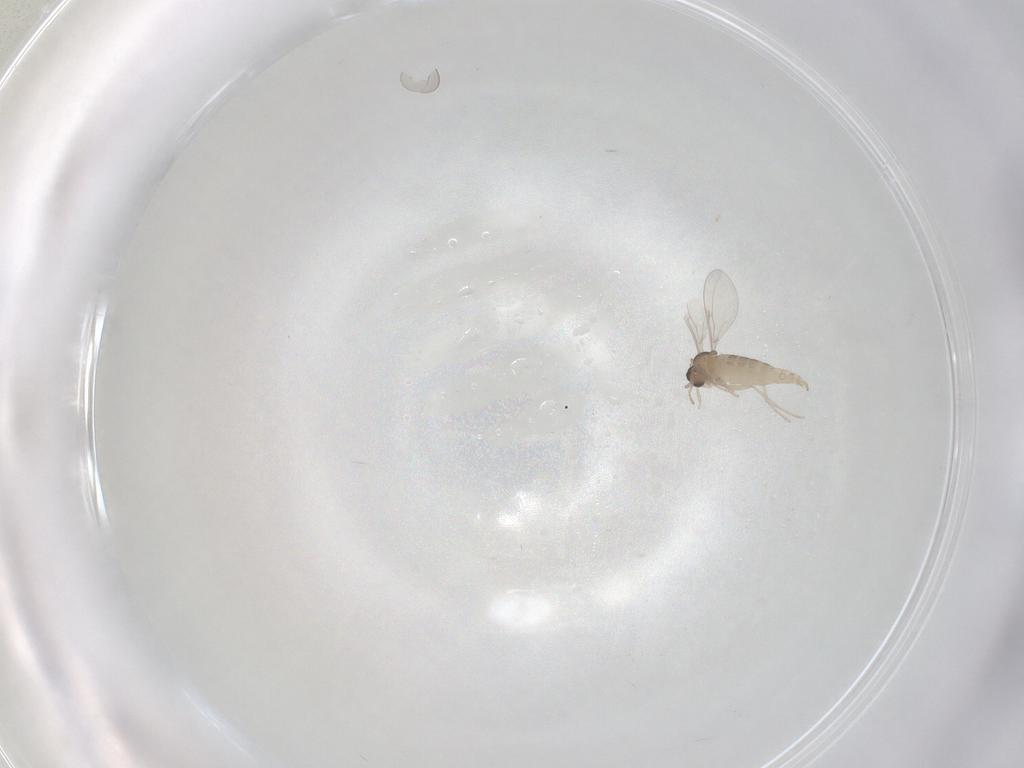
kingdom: Animalia
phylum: Arthropoda
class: Insecta
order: Diptera
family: Cecidomyiidae
